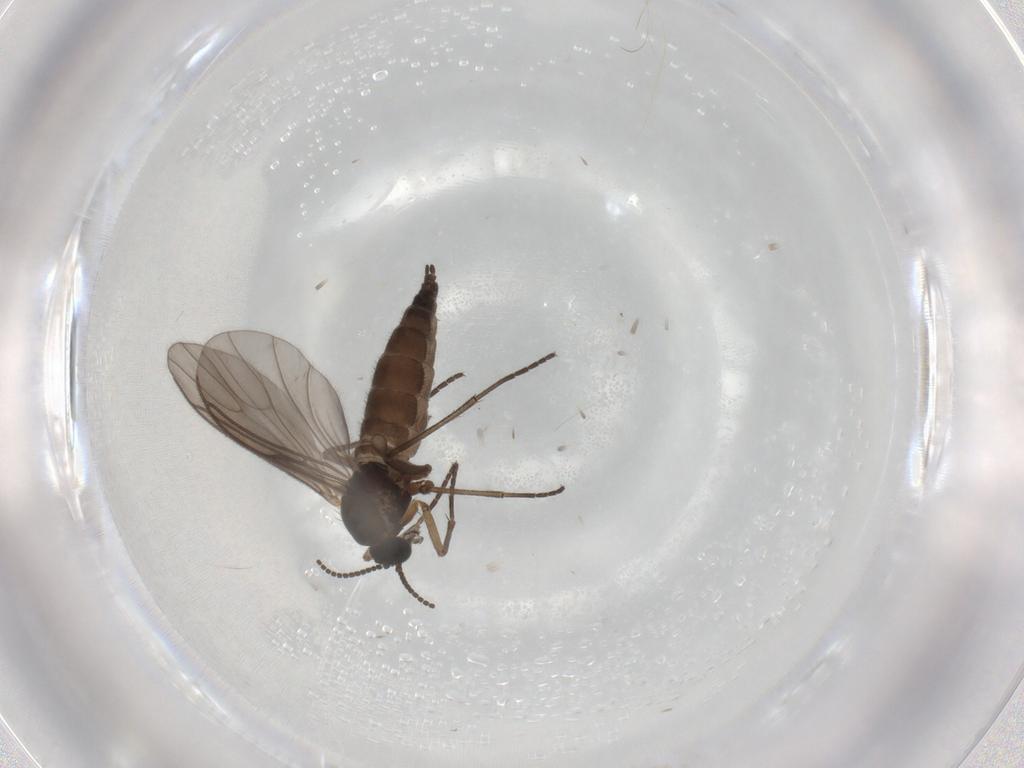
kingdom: Animalia
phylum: Arthropoda
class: Insecta
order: Diptera
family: Sciaridae
